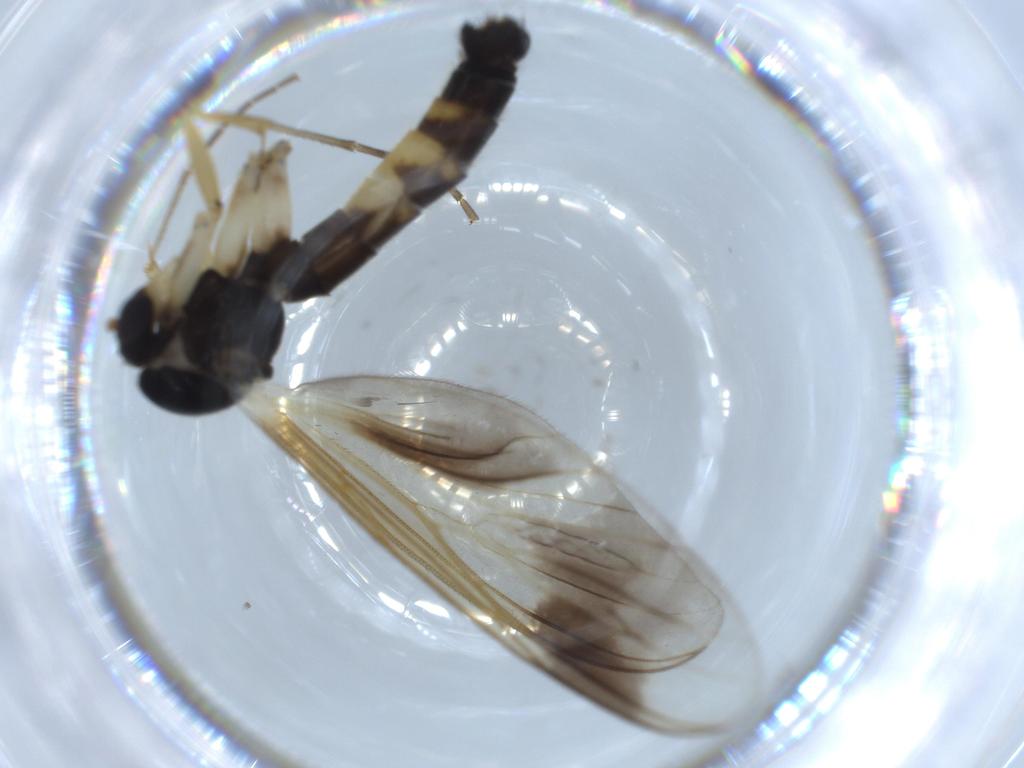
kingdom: Animalia
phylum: Arthropoda
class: Insecta
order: Diptera
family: Mycetophilidae
